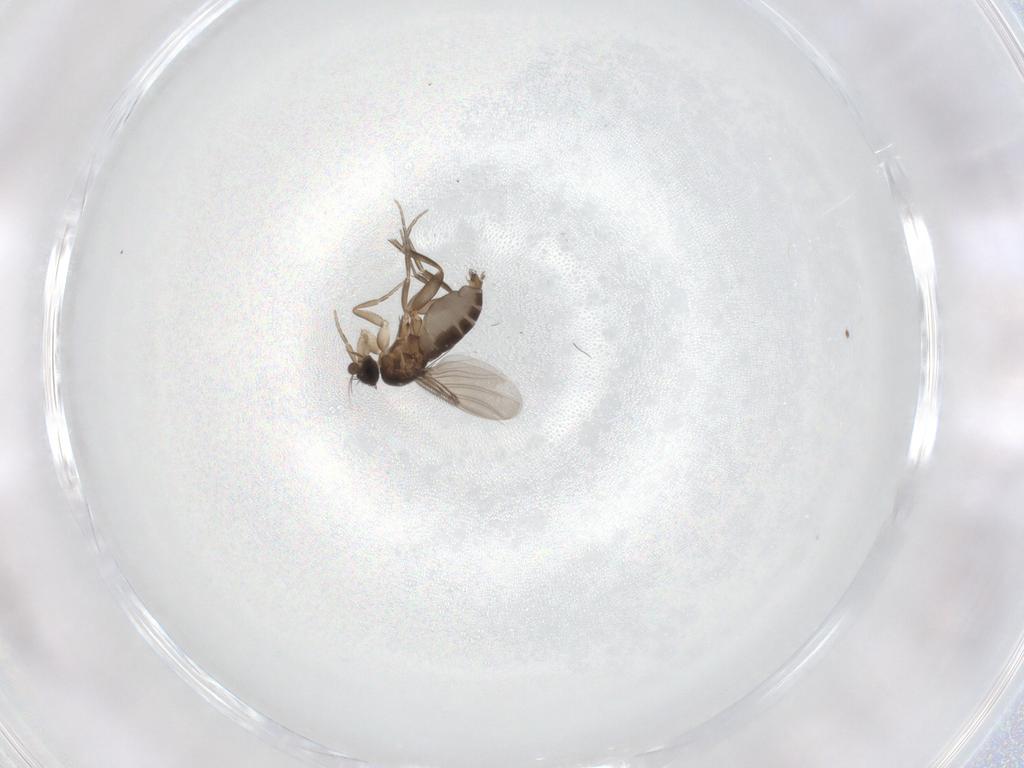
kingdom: Animalia
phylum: Arthropoda
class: Insecta
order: Diptera
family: Phoridae
